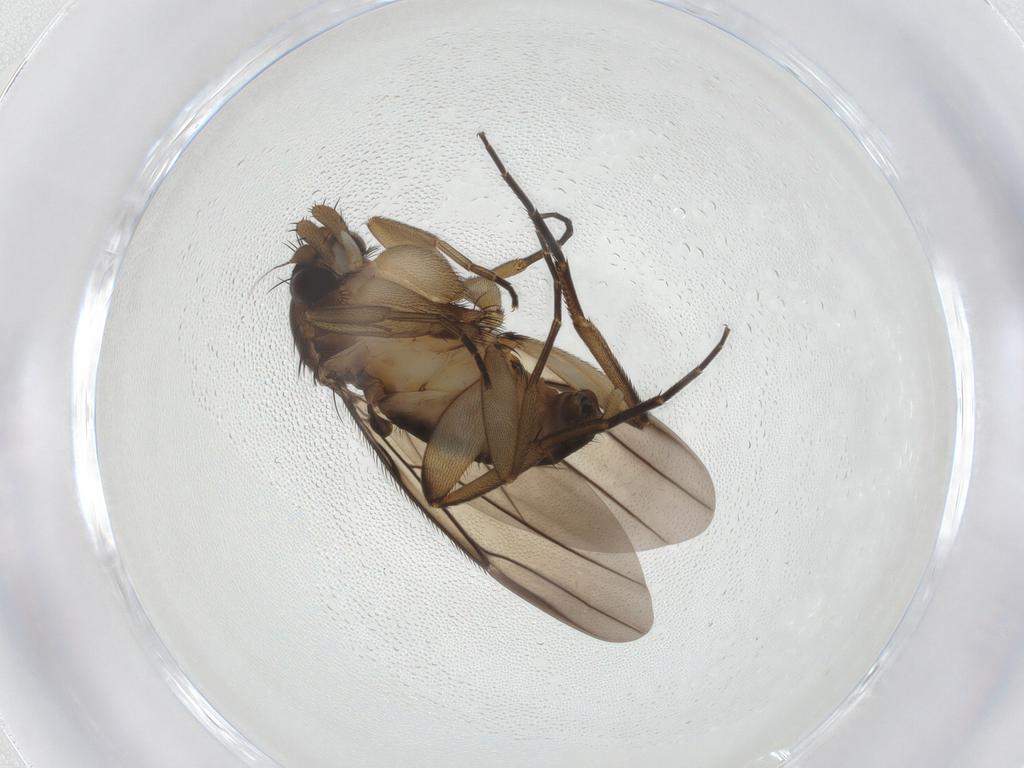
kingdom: Animalia
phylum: Arthropoda
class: Insecta
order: Diptera
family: Phoridae
